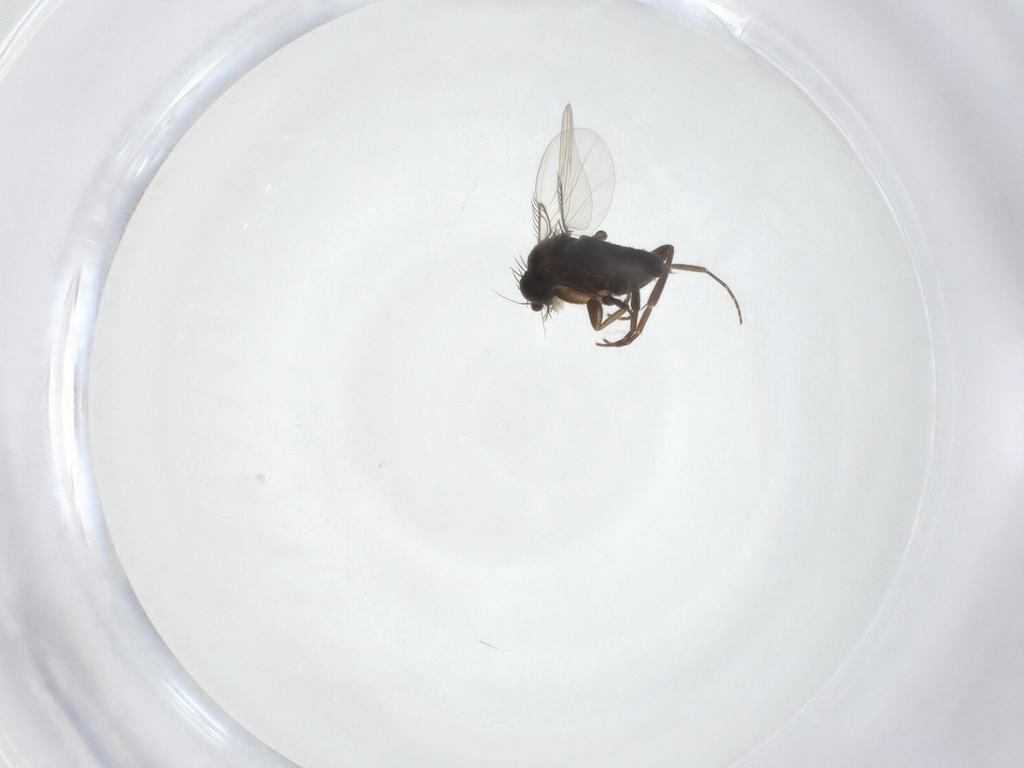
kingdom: Animalia
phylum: Arthropoda
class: Insecta
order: Diptera
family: Phoridae
